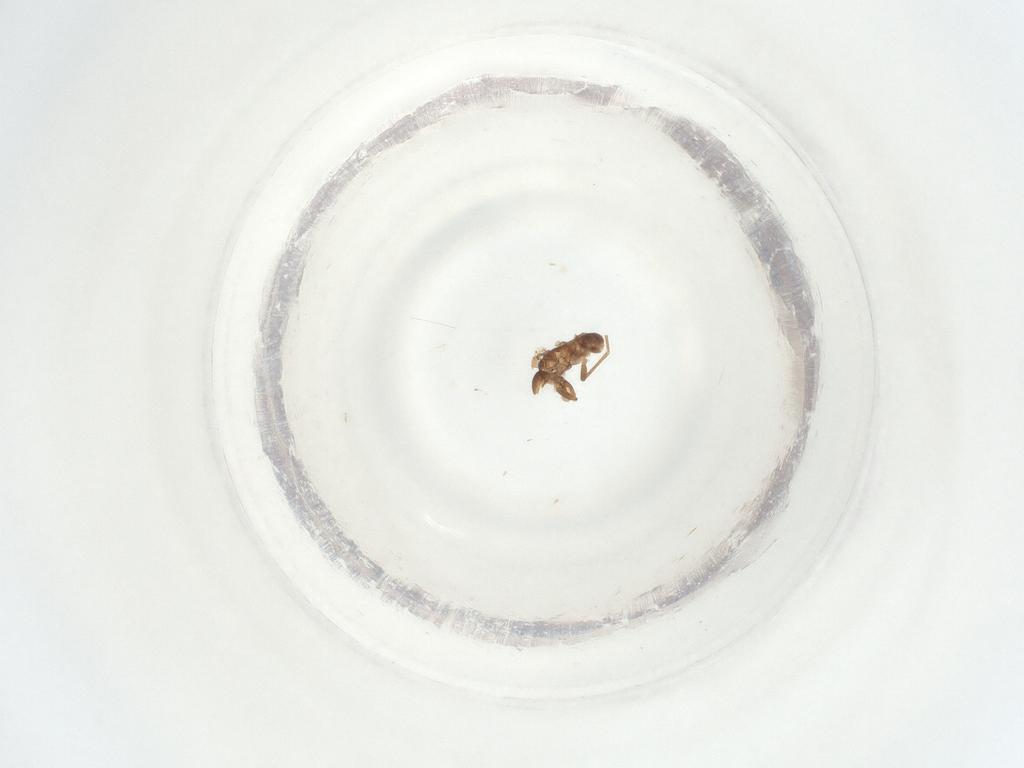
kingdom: Animalia
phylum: Arthropoda
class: Insecta
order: Diptera
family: Sciaridae
